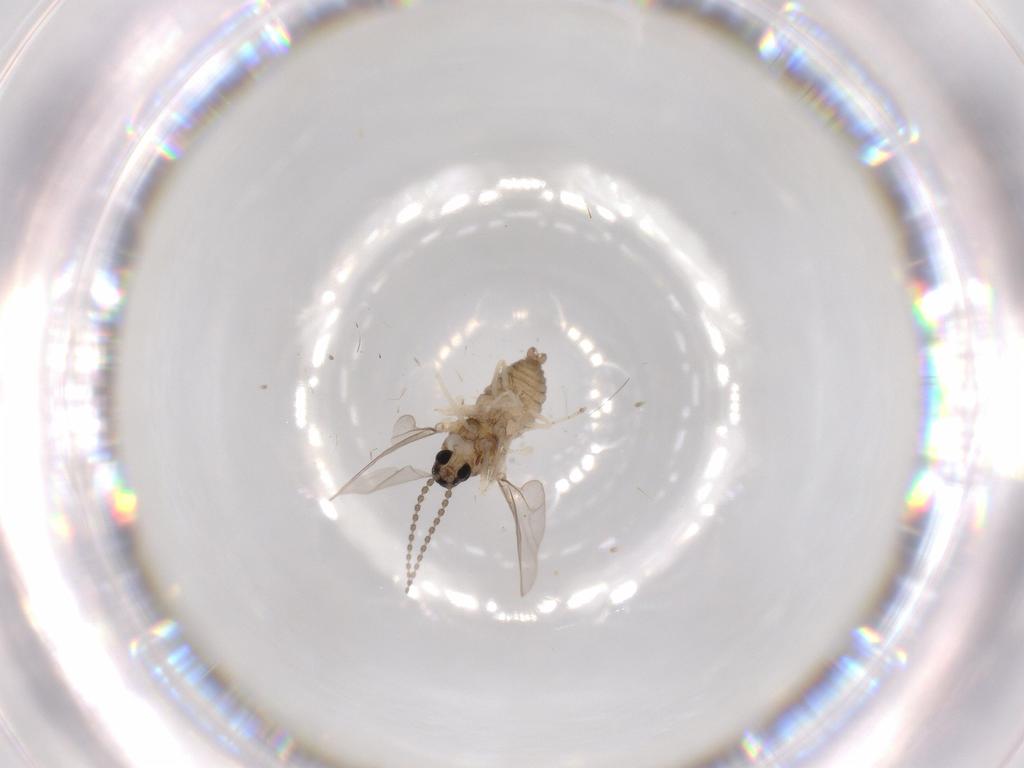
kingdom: Animalia
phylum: Arthropoda
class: Insecta
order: Diptera
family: Cecidomyiidae
